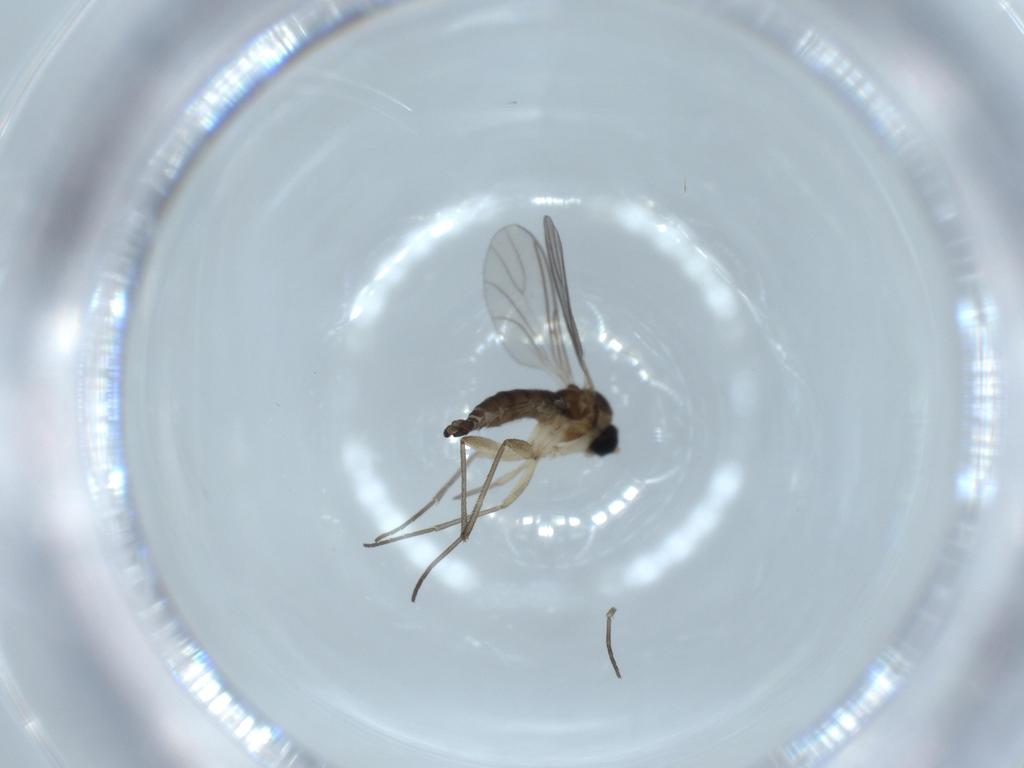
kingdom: Animalia
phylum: Arthropoda
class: Insecta
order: Diptera
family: Sciaridae
